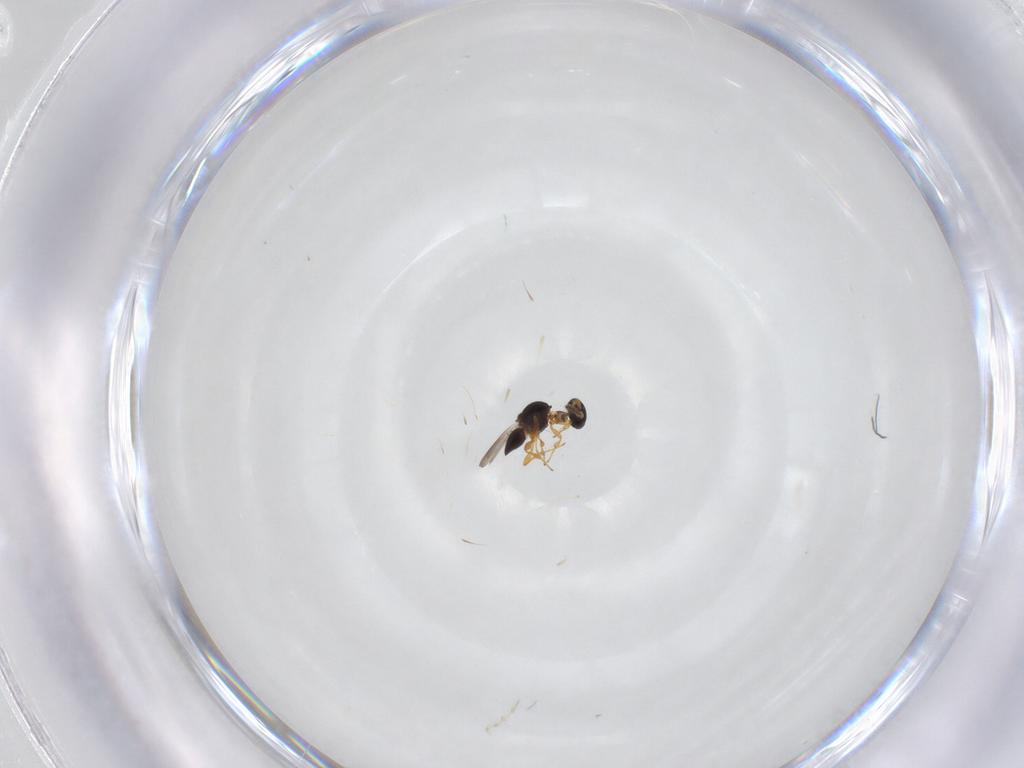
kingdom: Animalia
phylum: Arthropoda
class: Insecta
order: Hymenoptera
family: Platygastridae
